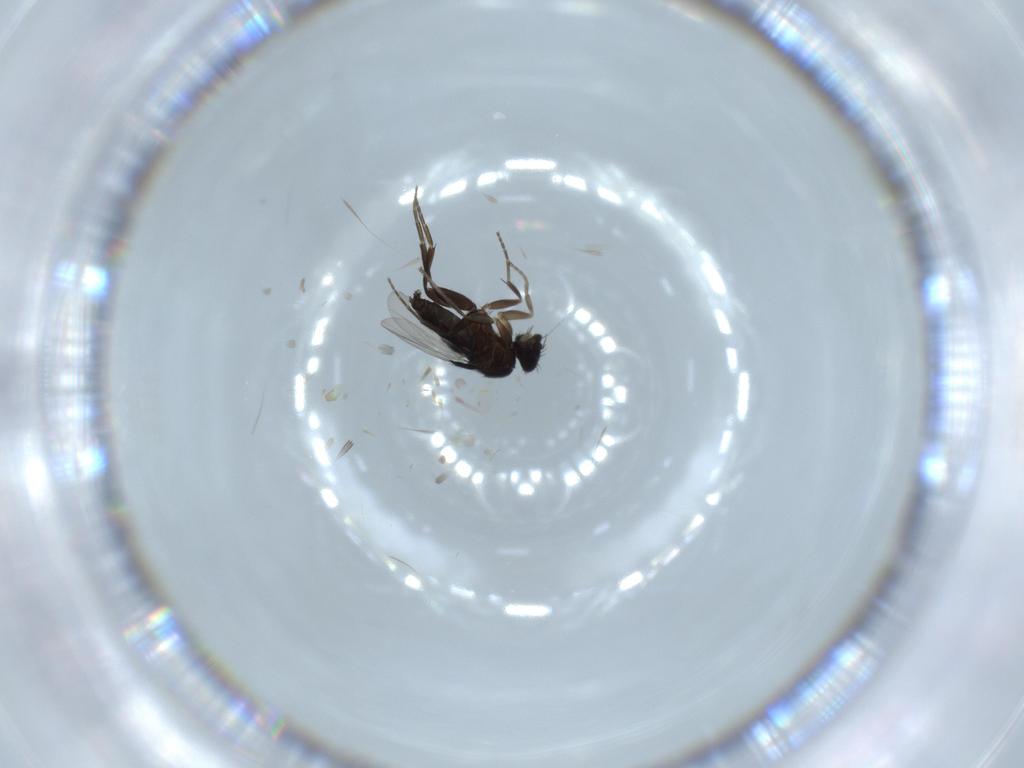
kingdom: Animalia
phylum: Arthropoda
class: Insecta
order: Diptera
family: Phoridae
